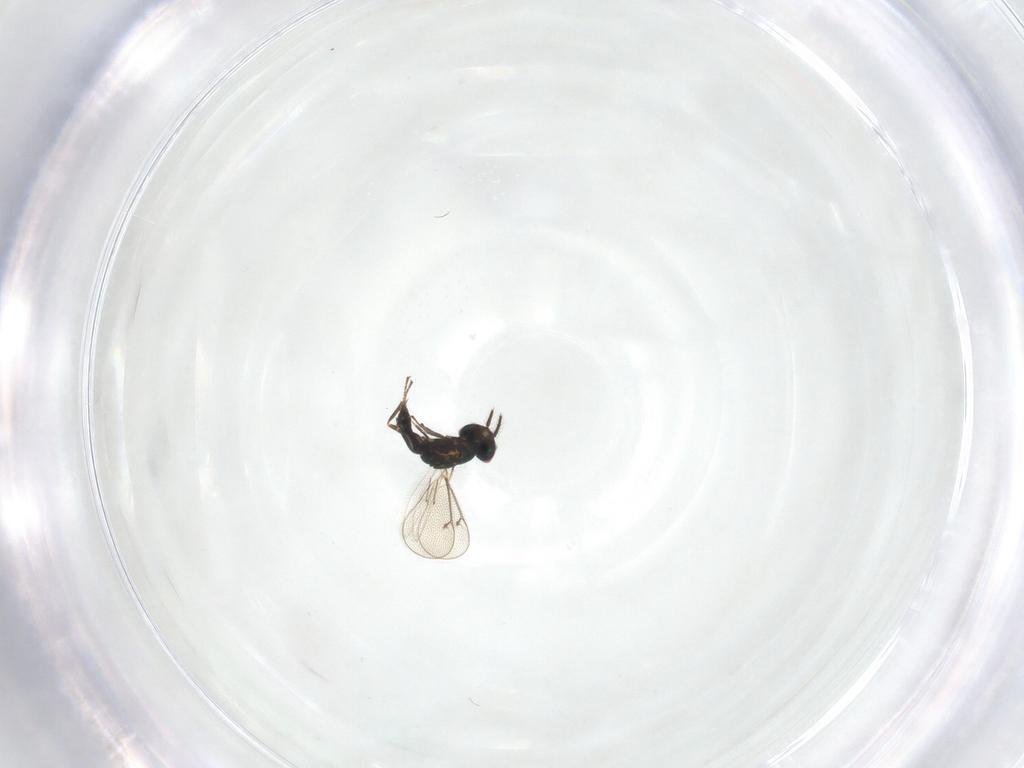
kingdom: Animalia
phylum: Arthropoda
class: Insecta
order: Hymenoptera
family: Eulophidae
